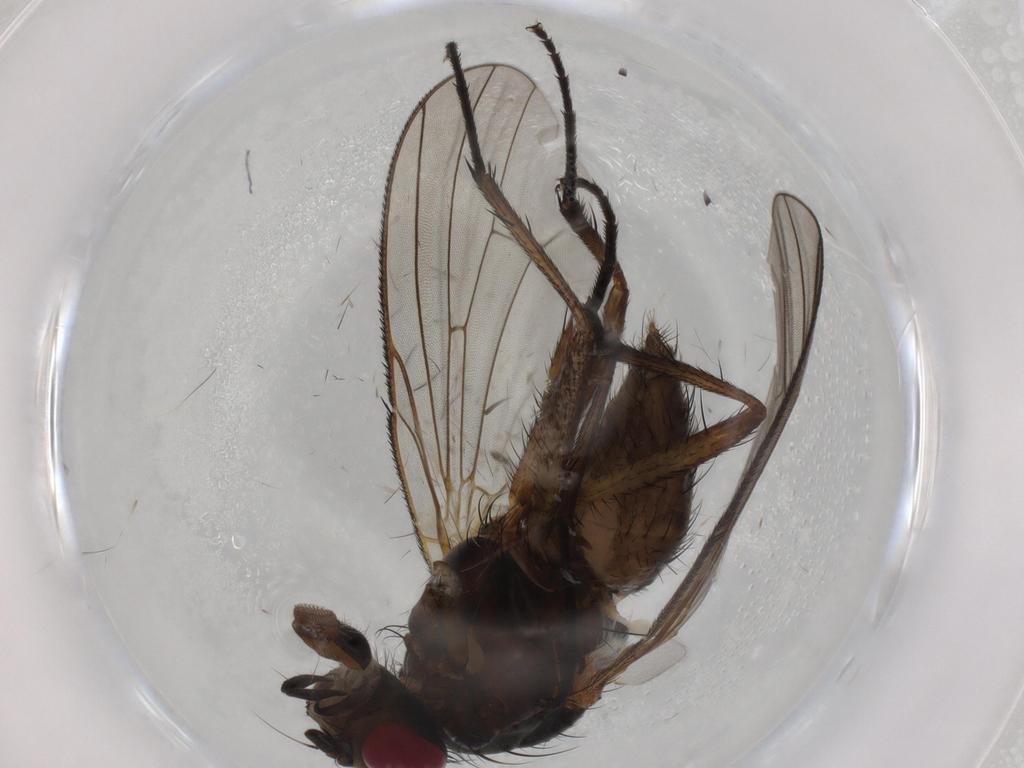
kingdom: Animalia
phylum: Arthropoda
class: Insecta
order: Diptera
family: Anthomyiidae
